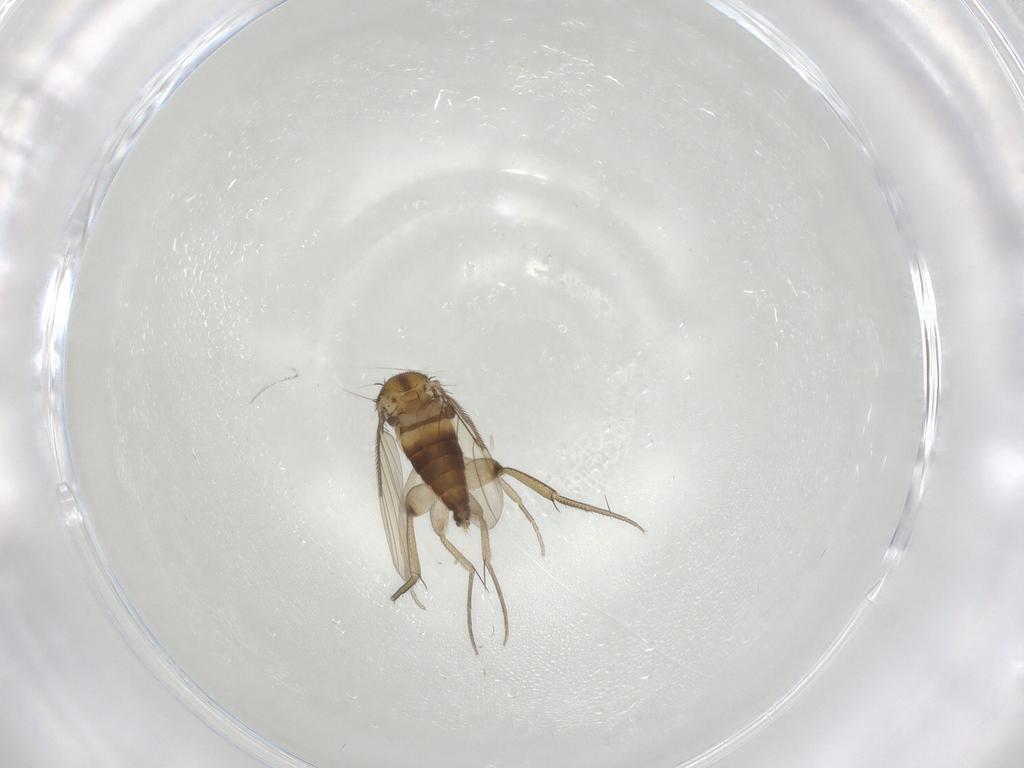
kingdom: Animalia
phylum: Arthropoda
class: Insecta
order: Diptera
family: Phoridae
